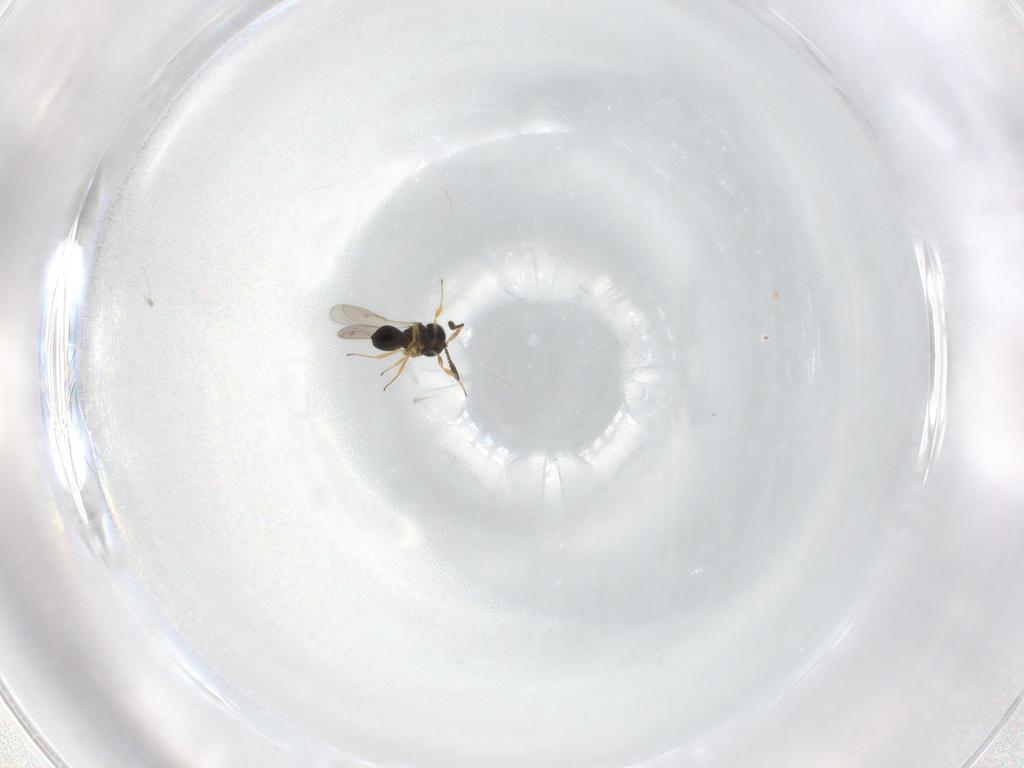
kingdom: Animalia
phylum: Arthropoda
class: Insecta
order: Hymenoptera
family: Scelionidae
